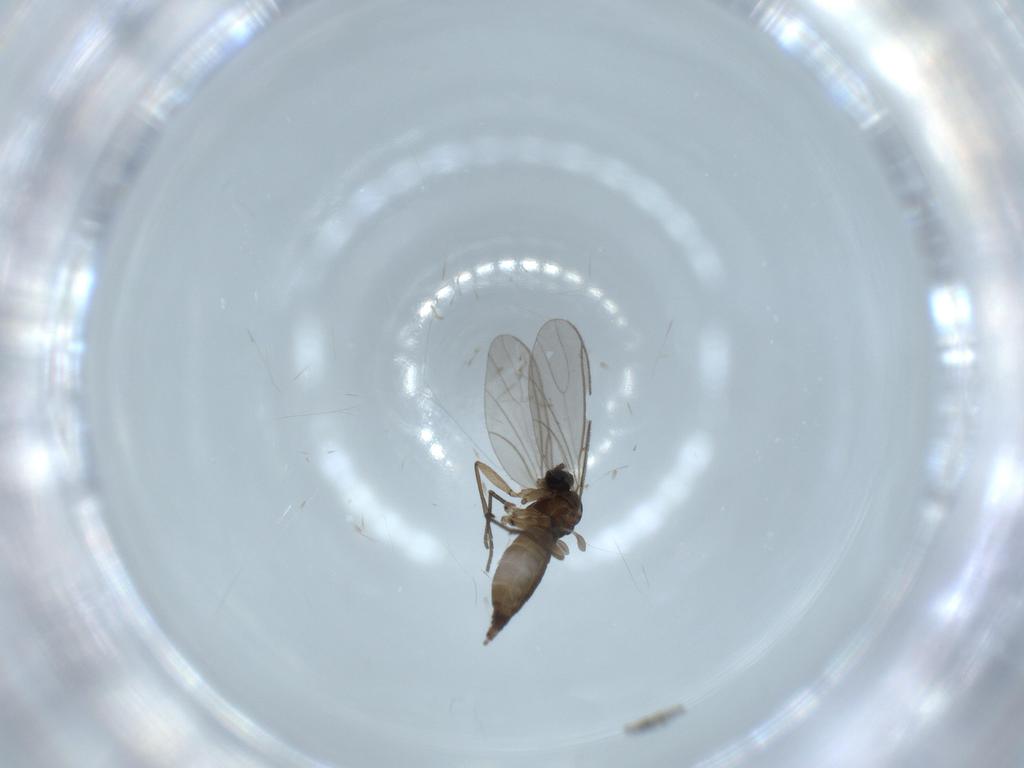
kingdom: Animalia
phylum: Arthropoda
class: Insecta
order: Diptera
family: Sciaridae
